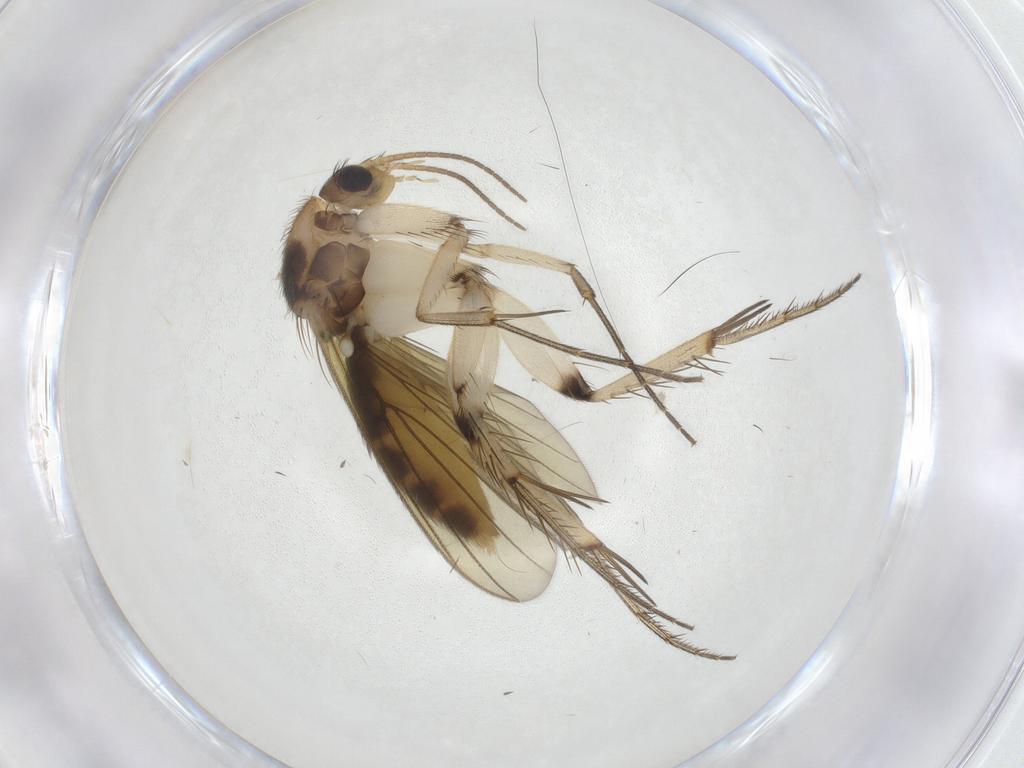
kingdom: Animalia
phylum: Arthropoda
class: Insecta
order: Diptera
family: Mycetophilidae
